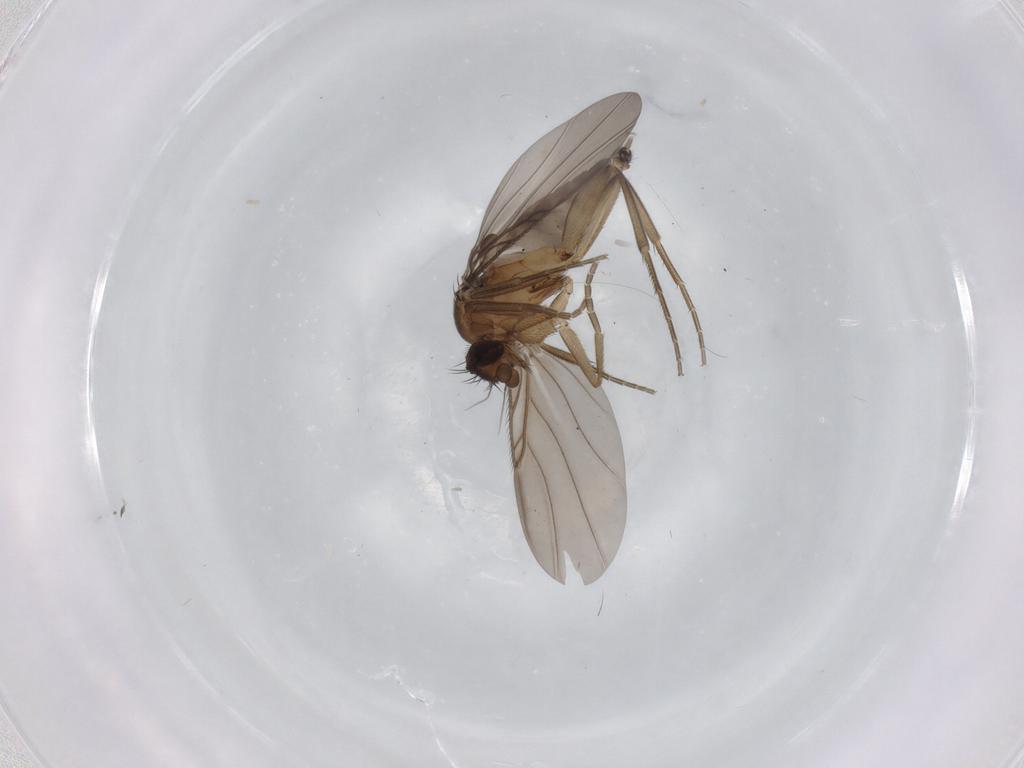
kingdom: Animalia
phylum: Arthropoda
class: Insecta
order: Diptera
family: Phoridae
